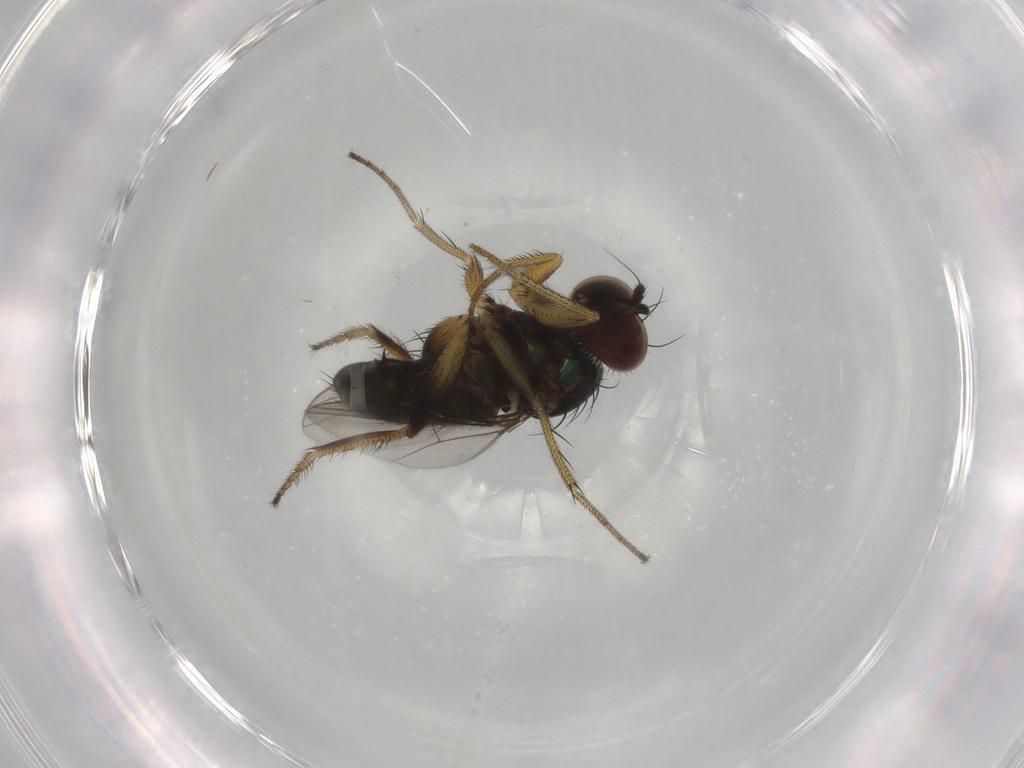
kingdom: Animalia
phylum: Arthropoda
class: Insecta
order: Diptera
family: Dolichopodidae
